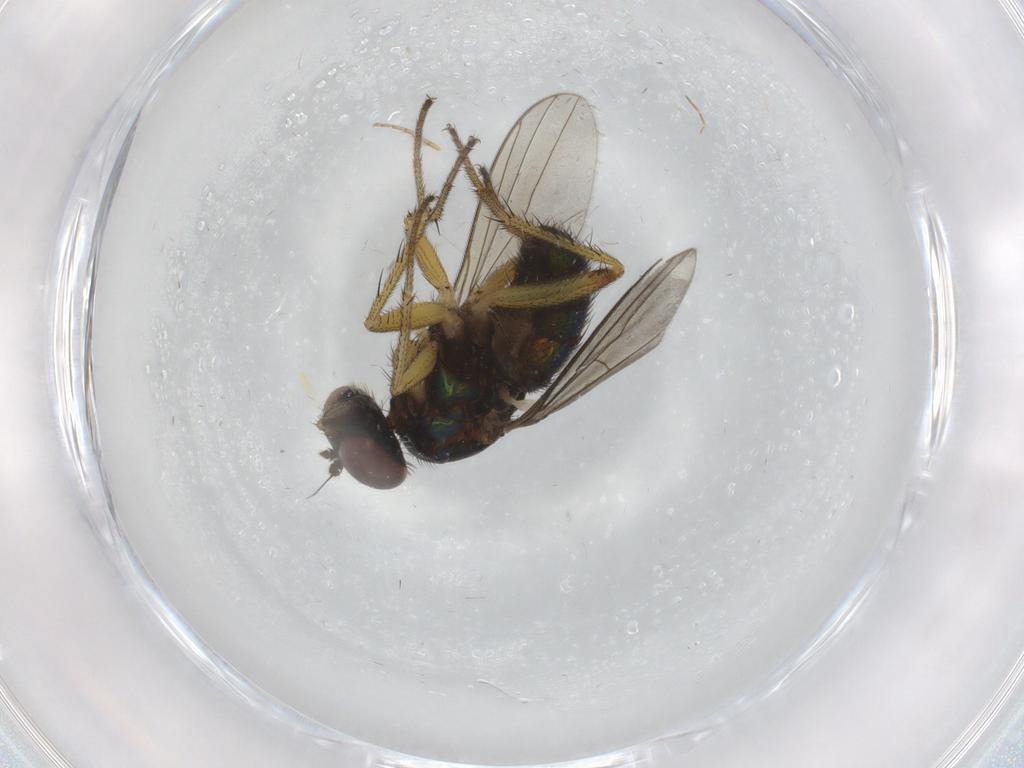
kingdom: Animalia
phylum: Arthropoda
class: Insecta
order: Diptera
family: Dolichopodidae
